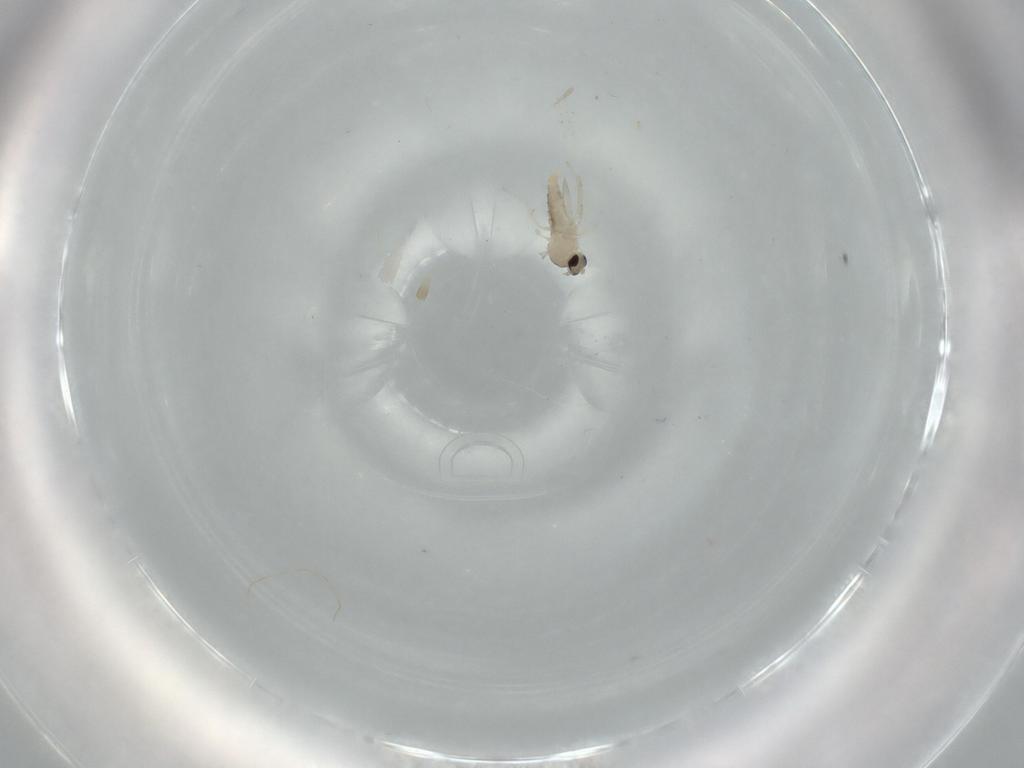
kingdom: Animalia
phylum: Arthropoda
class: Insecta
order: Diptera
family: Cecidomyiidae
